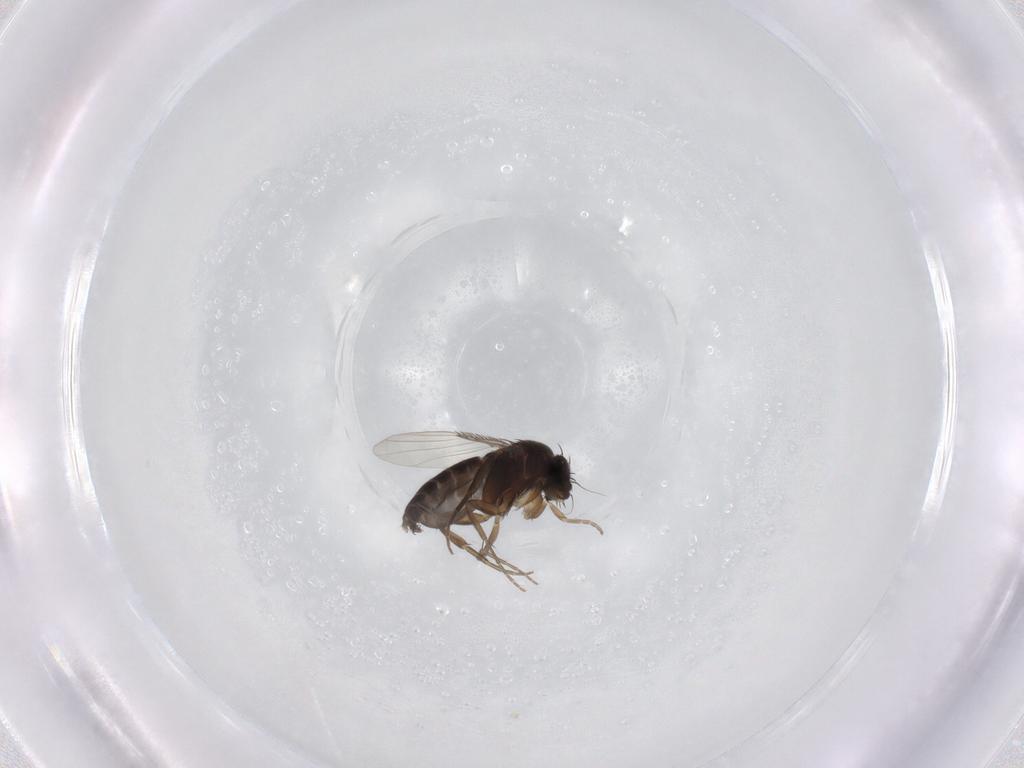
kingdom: Animalia
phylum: Arthropoda
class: Insecta
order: Diptera
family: Phoridae
